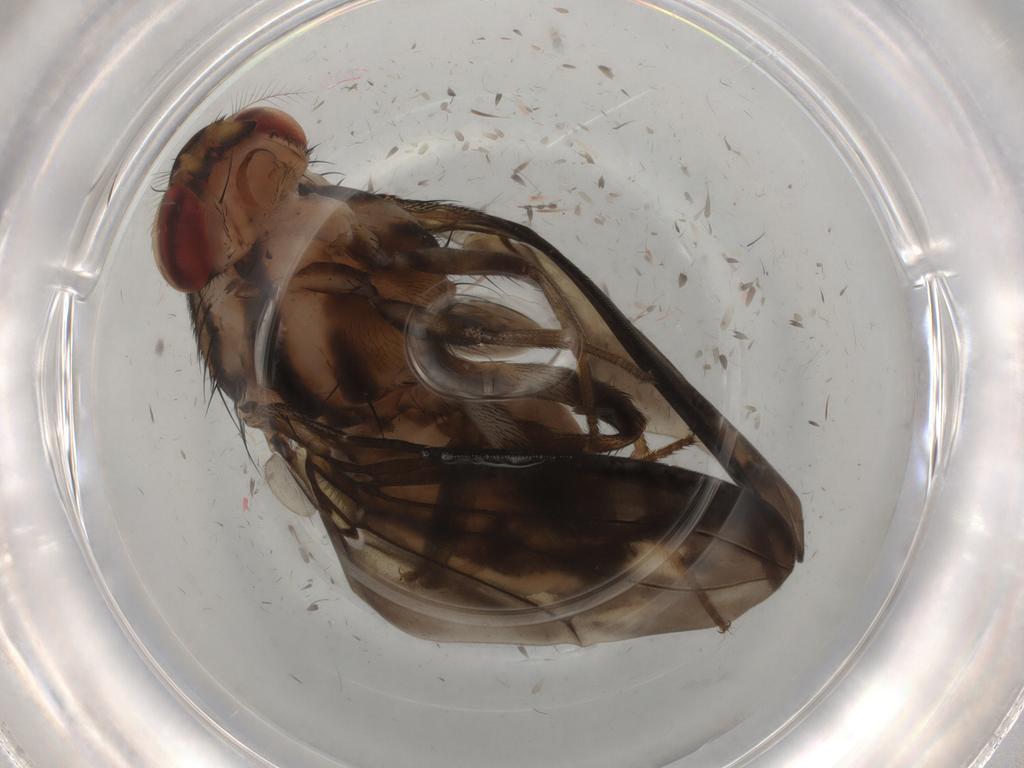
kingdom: Animalia
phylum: Arthropoda
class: Insecta
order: Diptera
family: Drosophilidae
